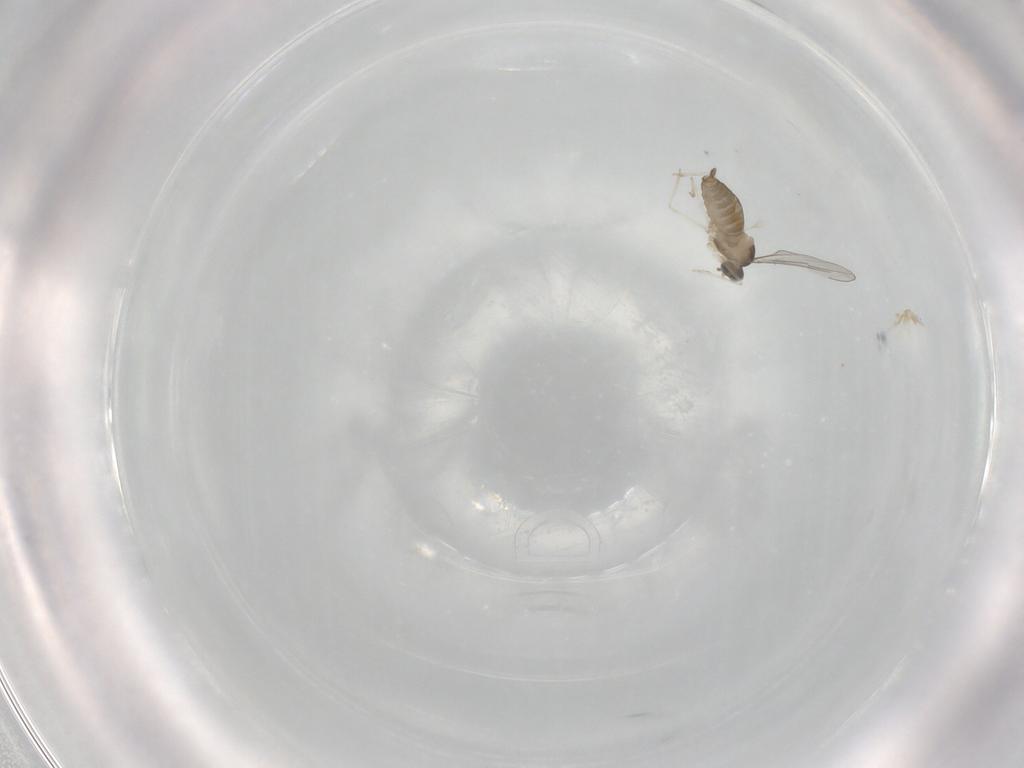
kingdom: Animalia
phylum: Arthropoda
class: Insecta
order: Diptera
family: Cecidomyiidae
